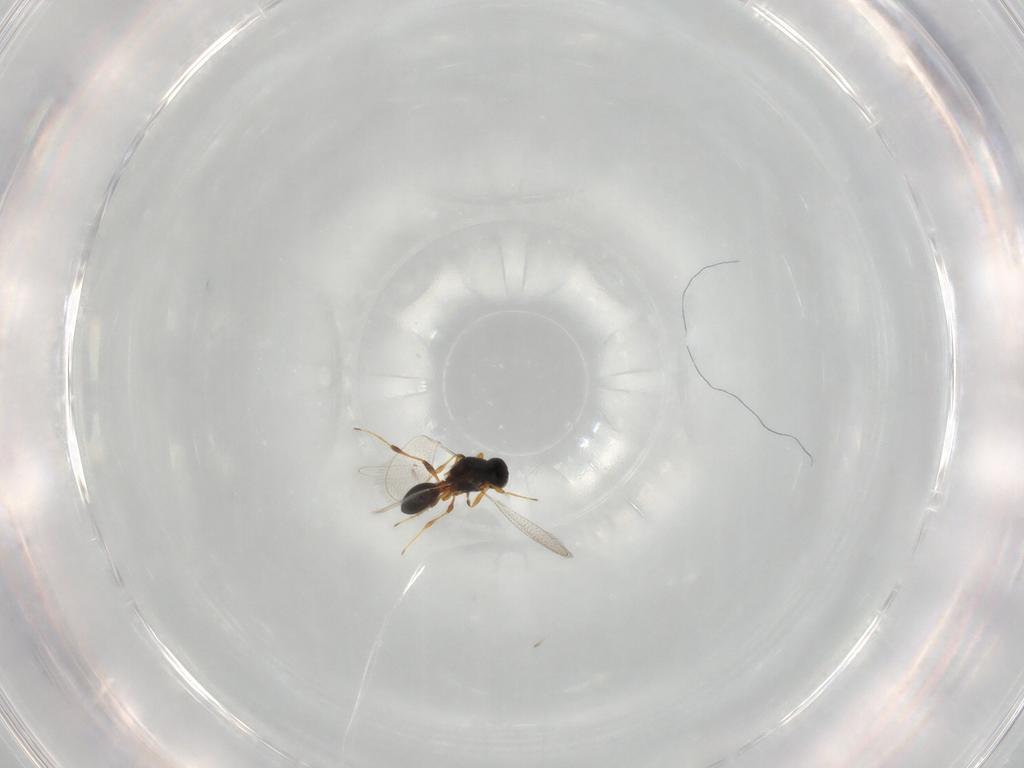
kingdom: Animalia
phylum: Arthropoda
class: Insecta
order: Hymenoptera
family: Platygastridae
